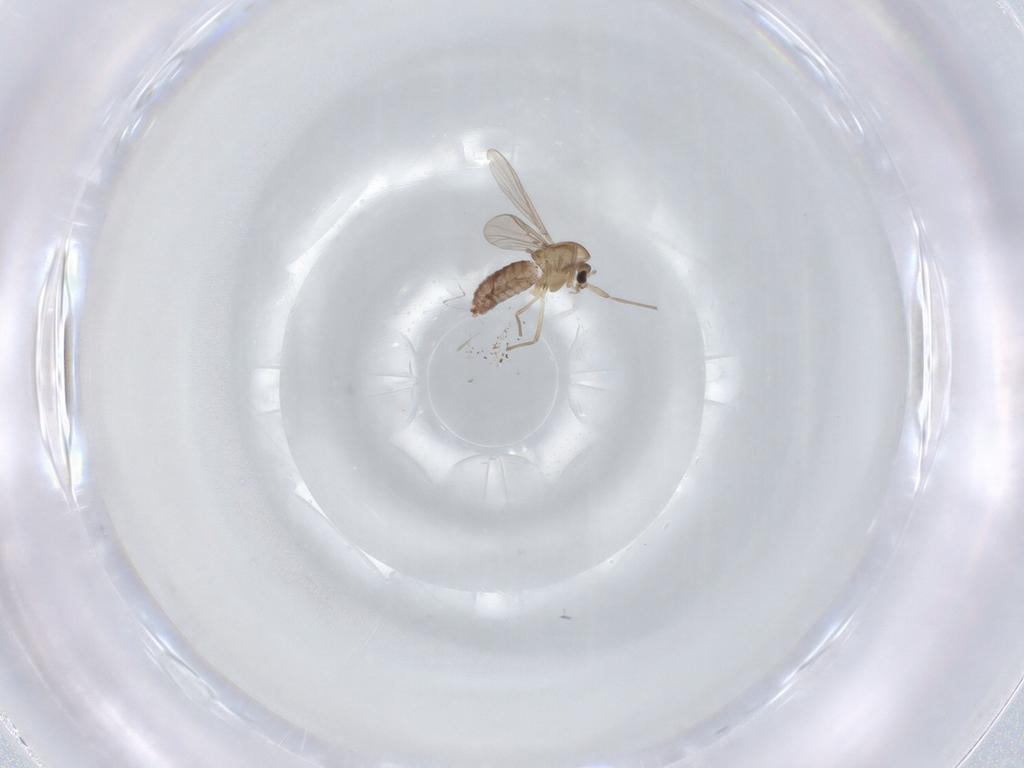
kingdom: Animalia
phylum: Arthropoda
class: Insecta
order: Diptera
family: Chironomidae
